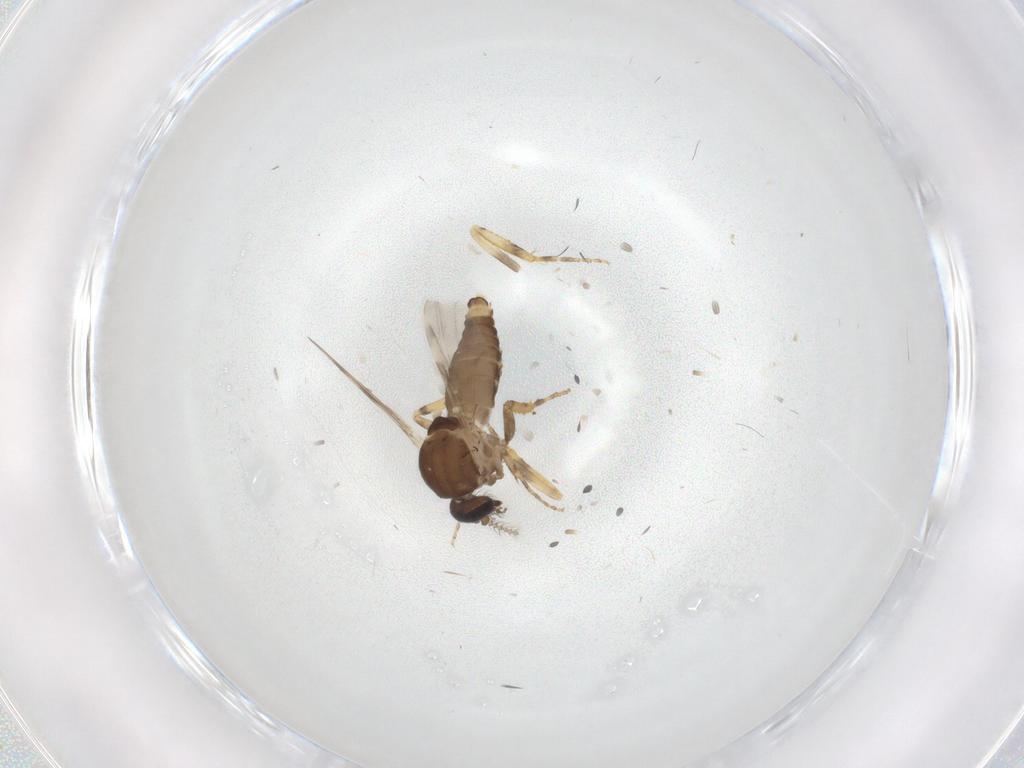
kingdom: Animalia
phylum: Arthropoda
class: Insecta
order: Diptera
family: Ceratopogonidae
